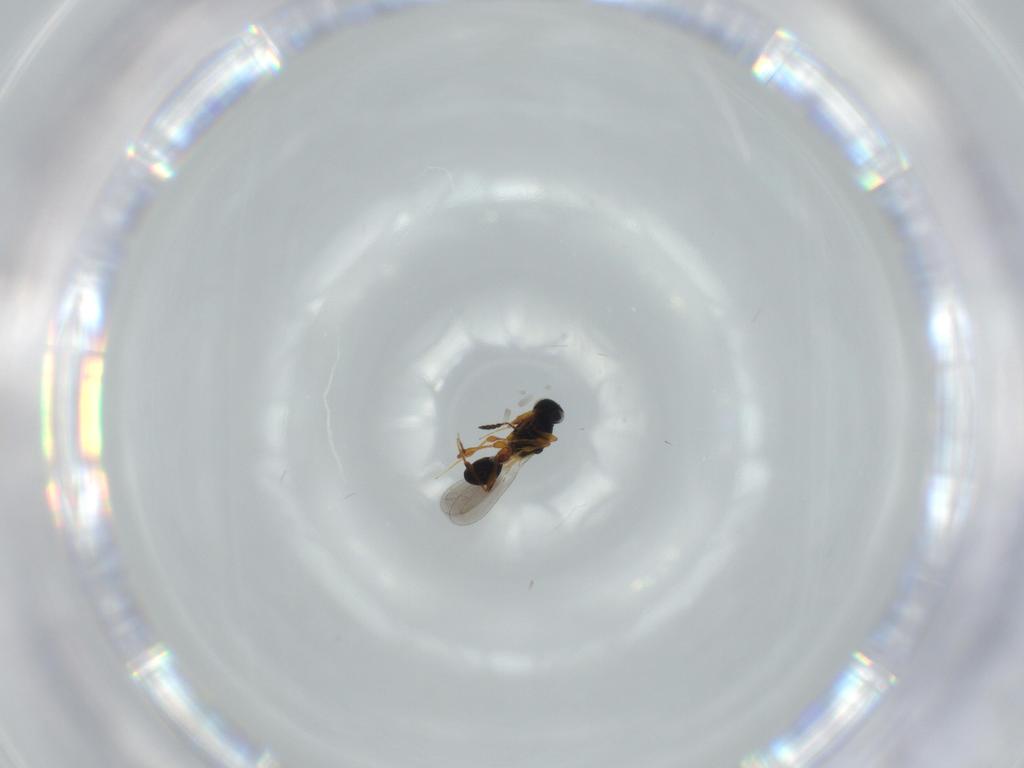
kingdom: Animalia
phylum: Arthropoda
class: Insecta
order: Hymenoptera
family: Platygastridae
